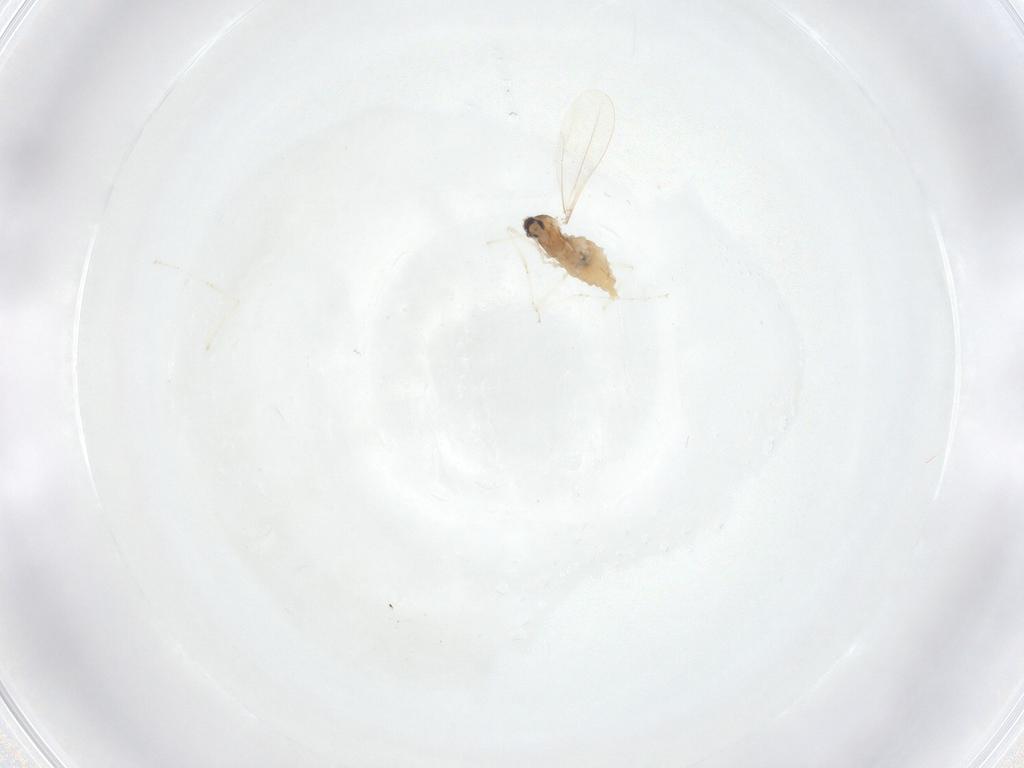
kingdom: Animalia
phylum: Arthropoda
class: Insecta
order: Diptera
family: Cecidomyiidae
